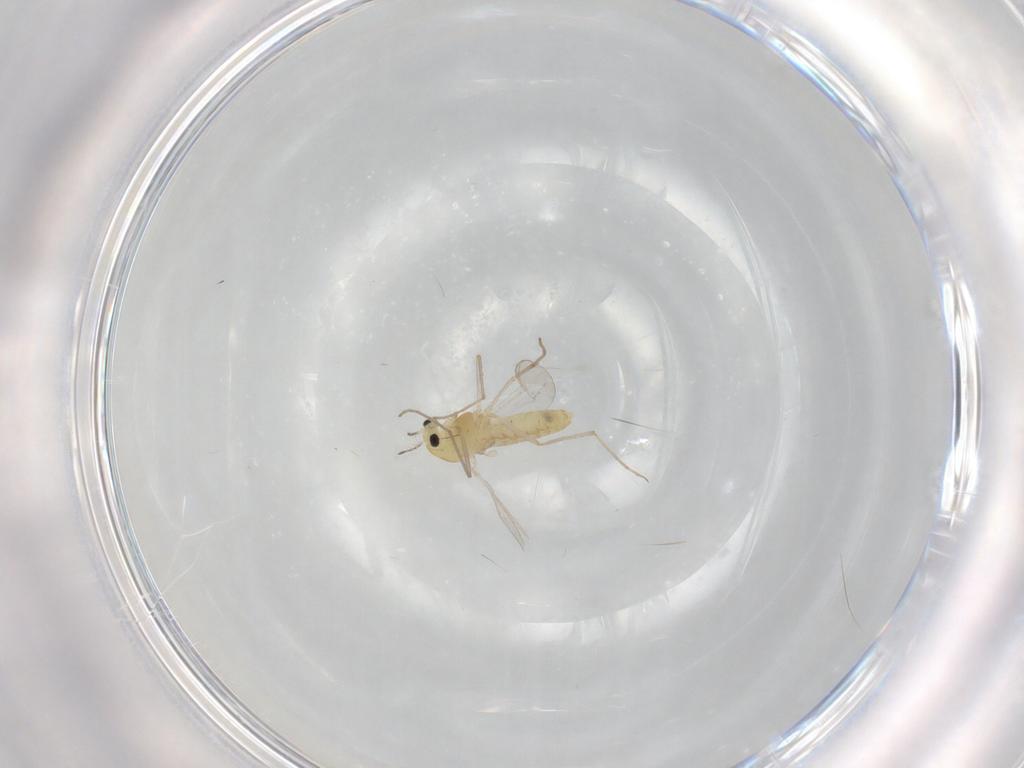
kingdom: Animalia
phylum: Arthropoda
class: Insecta
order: Diptera
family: Chironomidae
